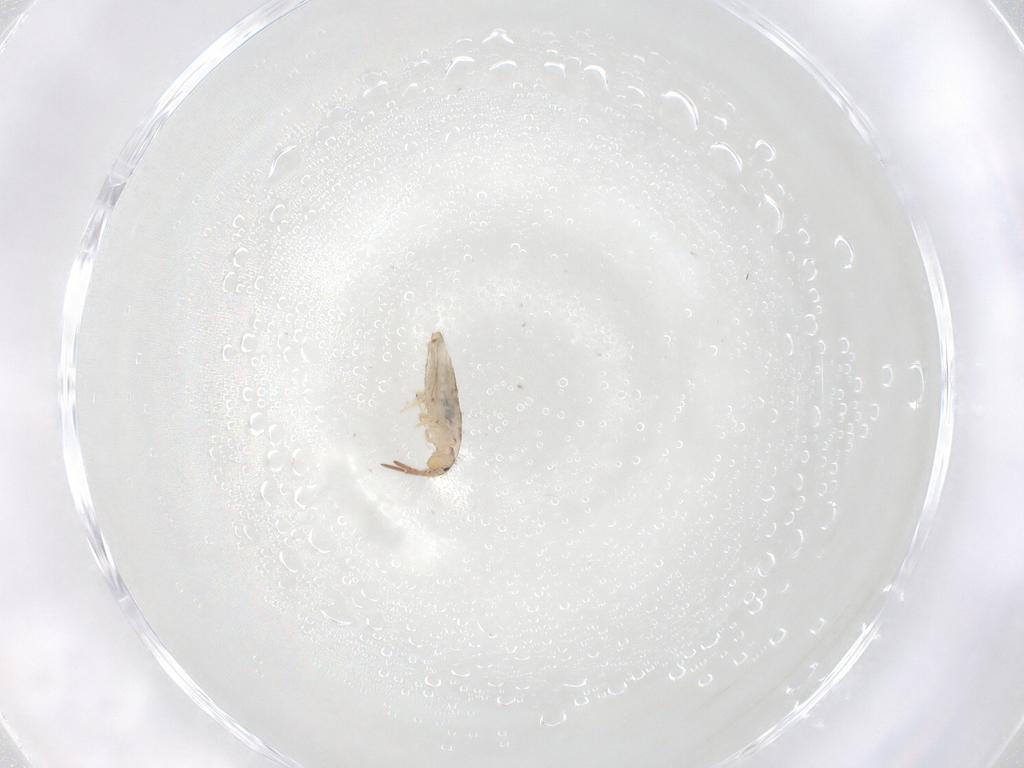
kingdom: Animalia
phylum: Arthropoda
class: Collembola
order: Entomobryomorpha
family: Entomobryidae
